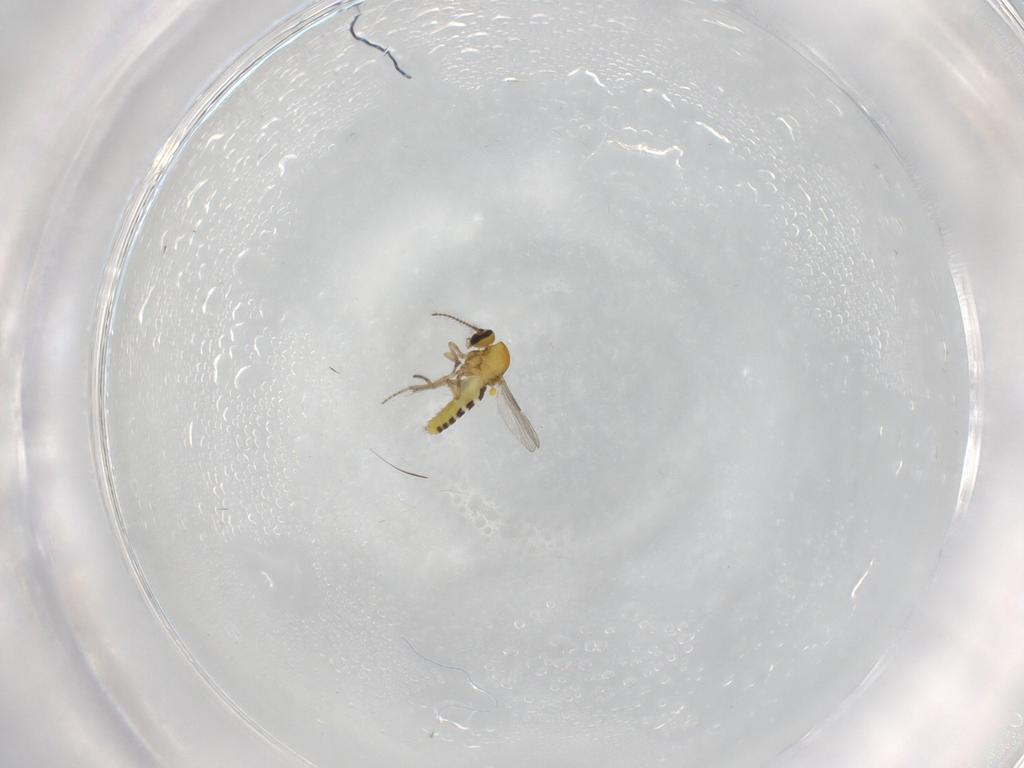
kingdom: Animalia
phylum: Arthropoda
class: Insecta
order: Diptera
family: Ceratopogonidae
